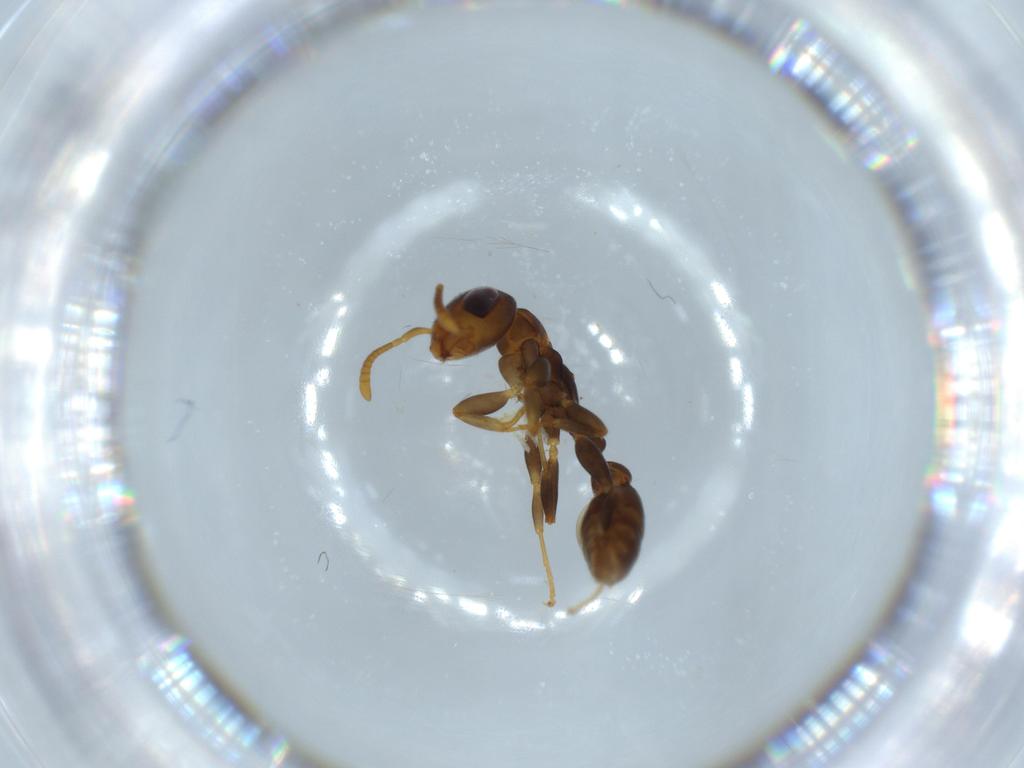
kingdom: Animalia
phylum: Arthropoda
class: Insecta
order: Hymenoptera
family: Formicidae
